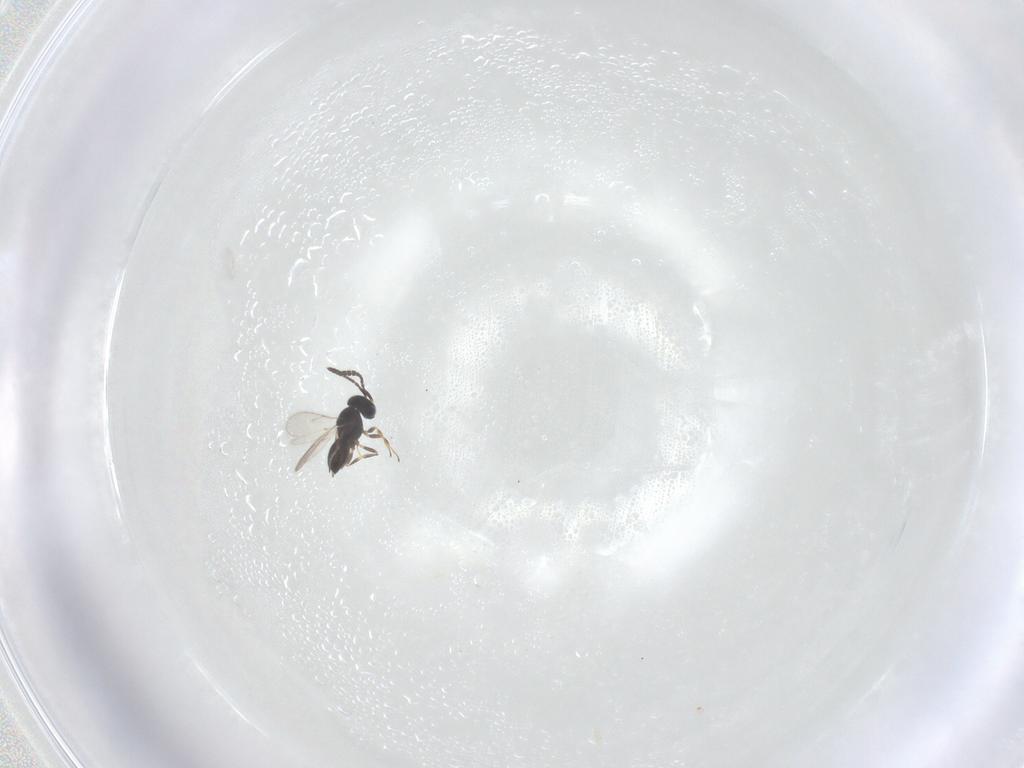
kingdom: Animalia
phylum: Arthropoda
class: Insecta
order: Hymenoptera
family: Scelionidae
